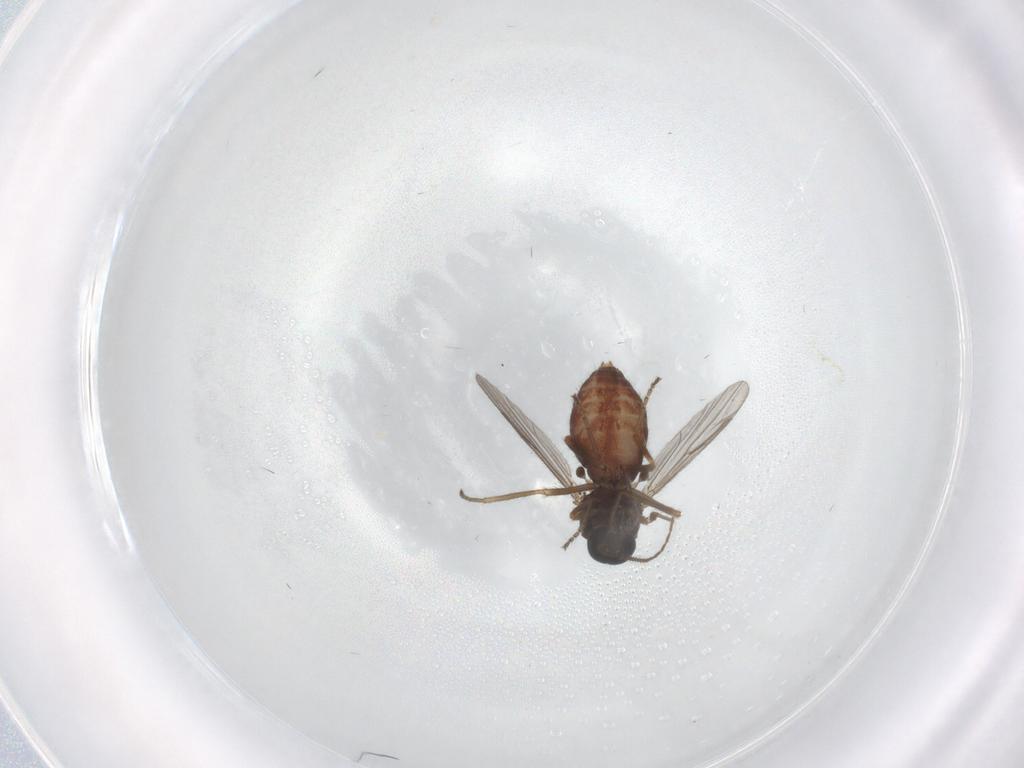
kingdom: Animalia
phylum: Arthropoda
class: Insecta
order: Diptera
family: Ceratopogonidae
